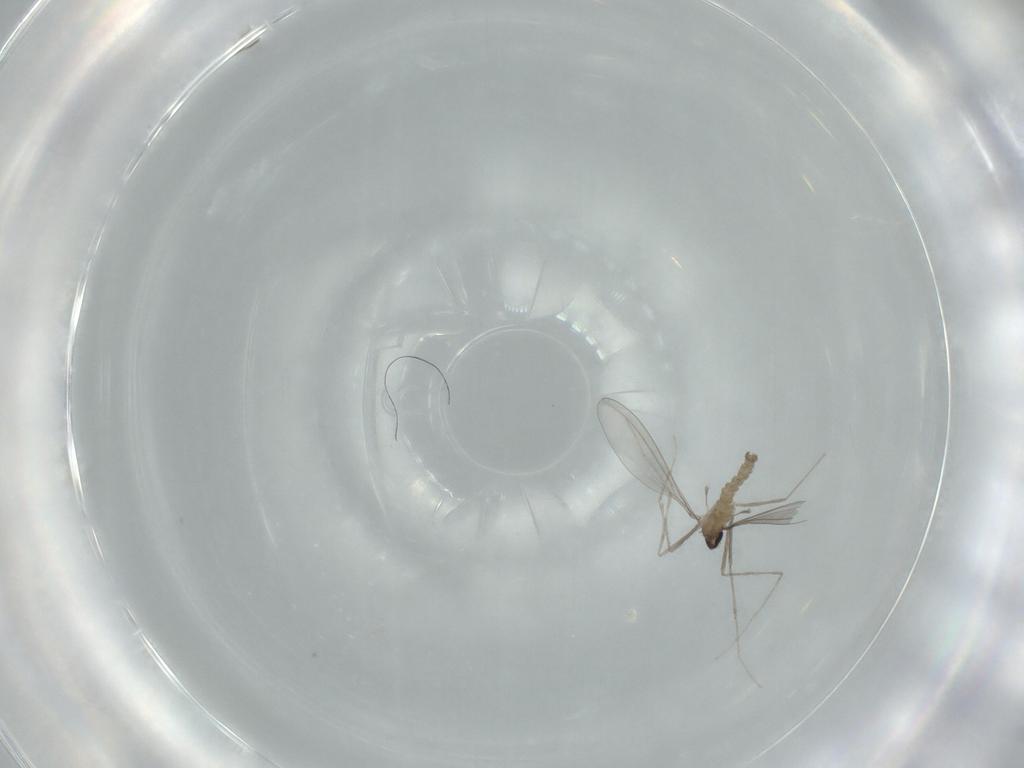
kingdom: Animalia
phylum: Arthropoda
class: Insecta
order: Diptera
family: Cecidomyiidae
